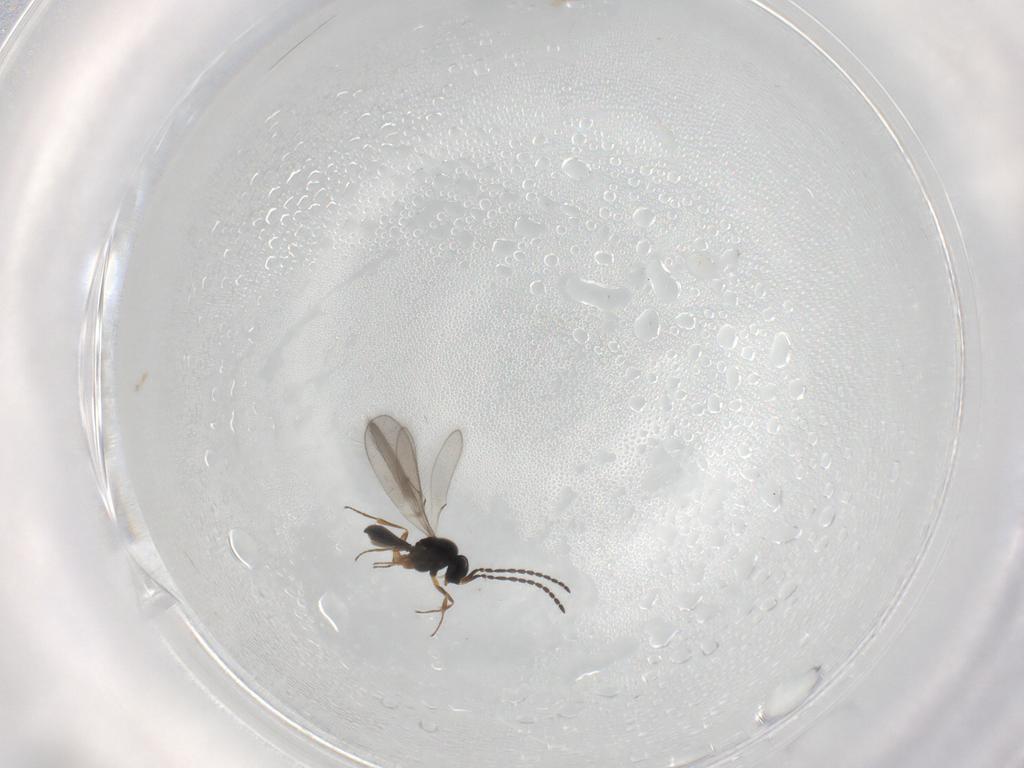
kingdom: Animalia
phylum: Arthropoda
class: Insecta
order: Hymenoptera
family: Scelionidae
